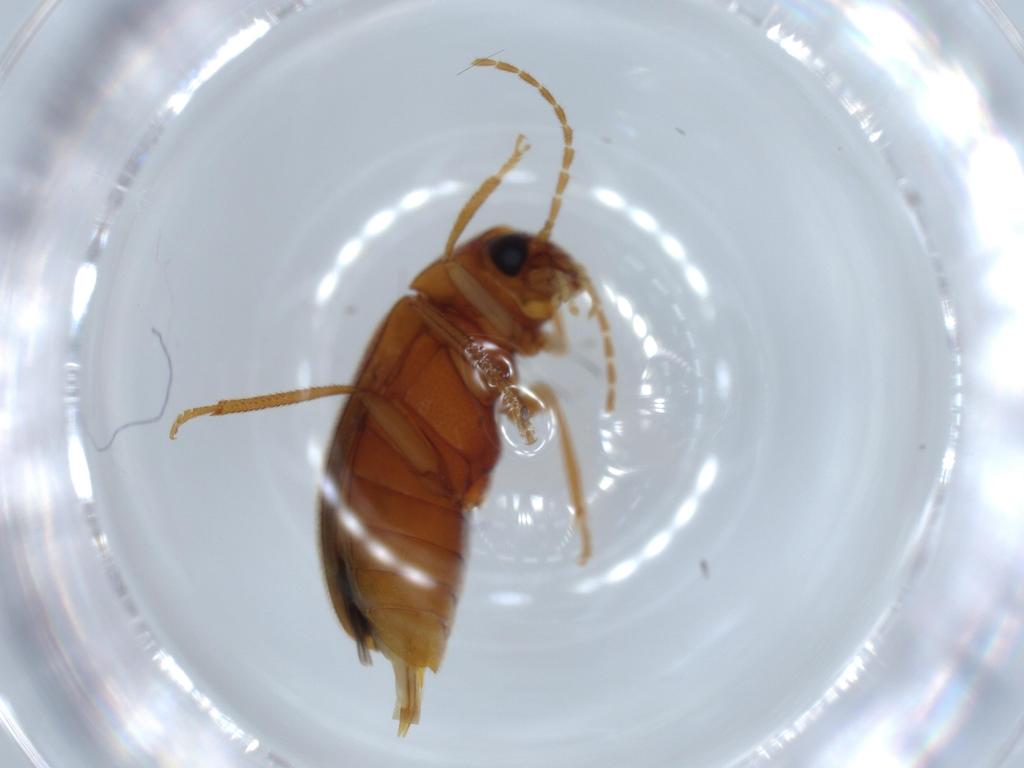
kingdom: Animalia
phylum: Arthropoda
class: Insecta
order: Coleoptera
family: Ptilodactylidae
